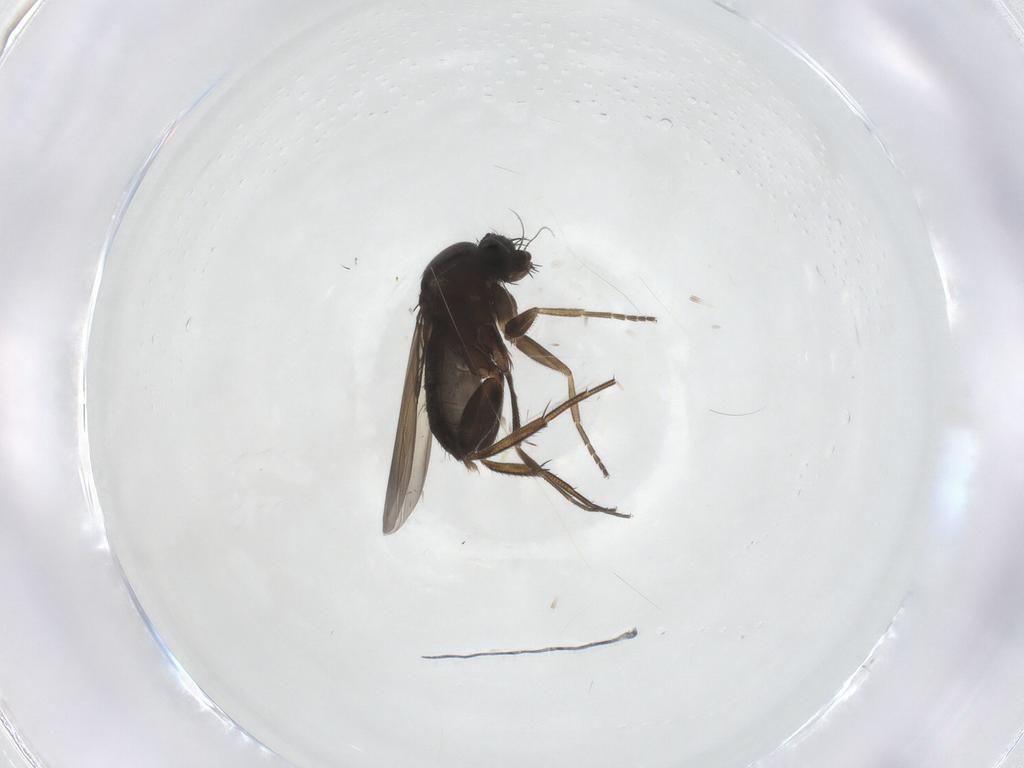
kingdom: Animalia
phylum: Arthropoda
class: Insecta
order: Diptera
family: Phoridae
